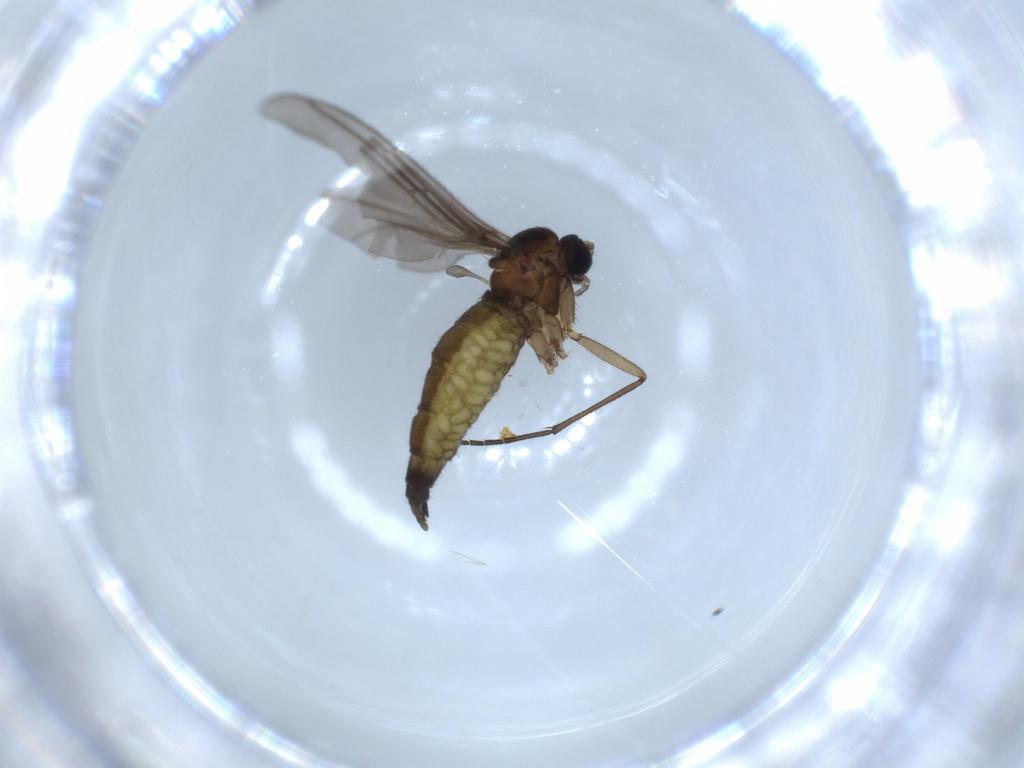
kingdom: Animalia
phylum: Arthropoda
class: Insecta
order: Diptera
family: Sciaridae
